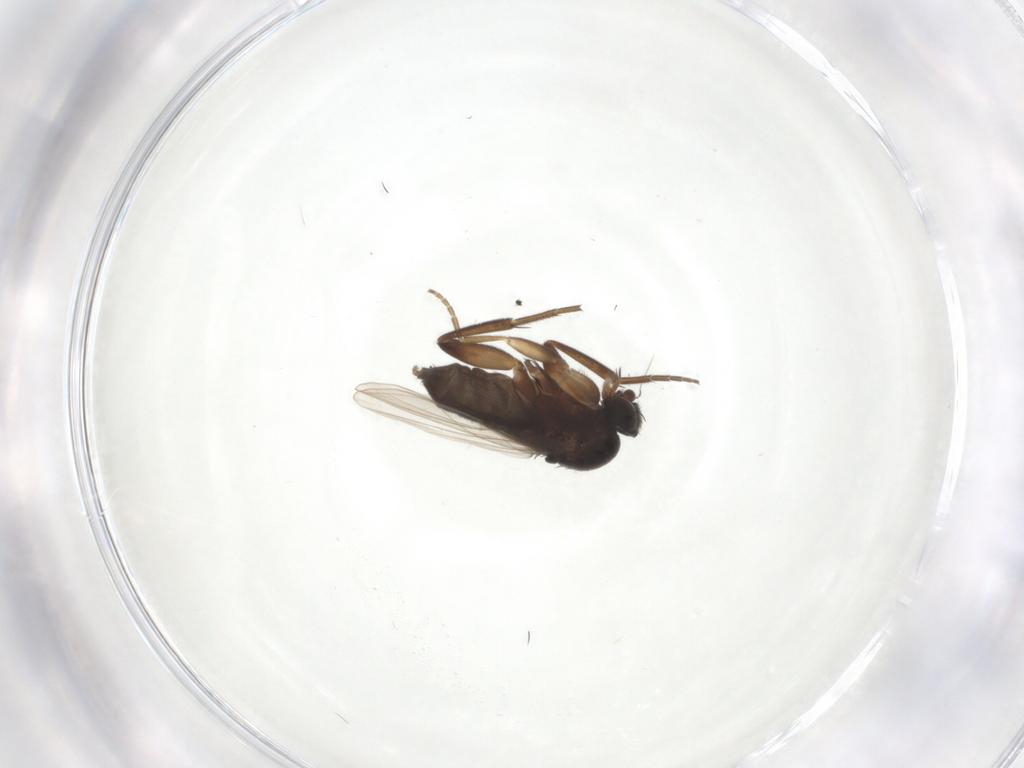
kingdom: Animalia
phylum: Arthropoda
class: Insecta
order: Diptera
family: Phoridae
